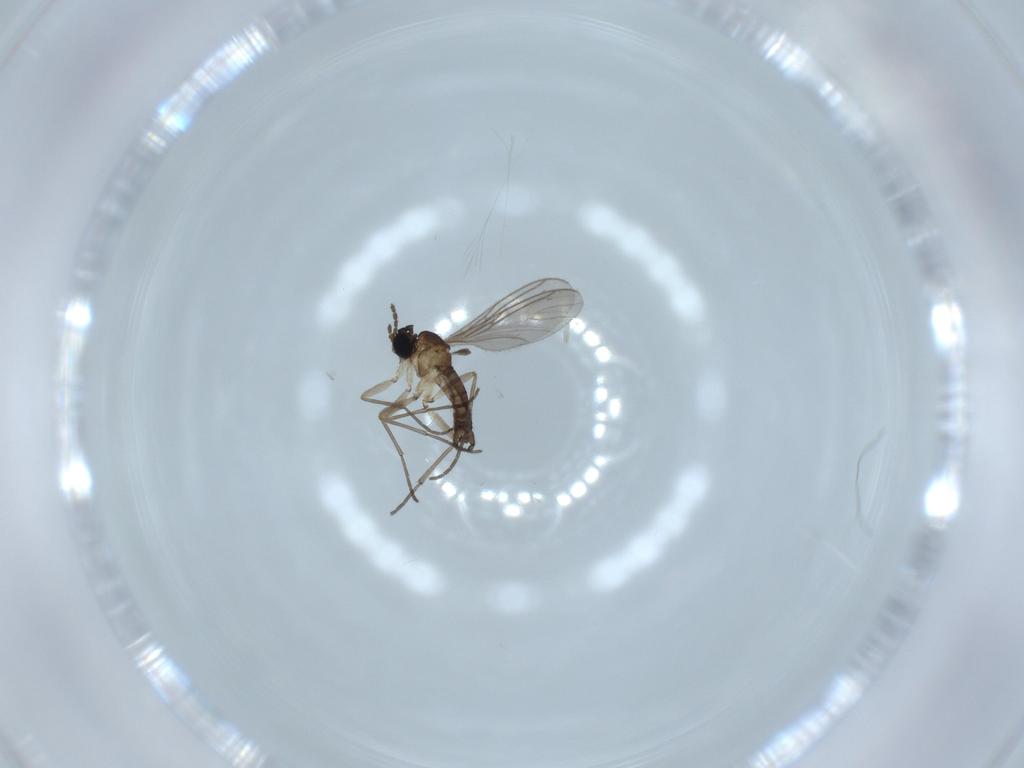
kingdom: Animalia
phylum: Arthropoda
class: Insecta
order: Diptera
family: Sciaridae
